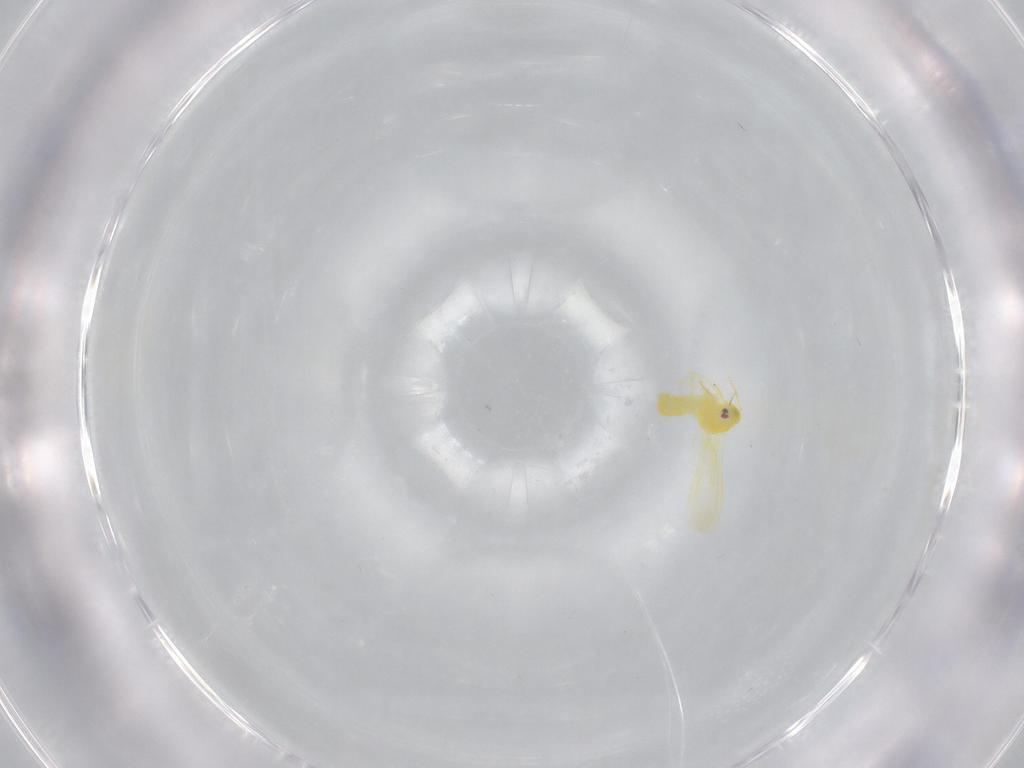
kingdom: Animalia
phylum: Arthropoda
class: Insecta
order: Hemiptera
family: Aleyrodidae
